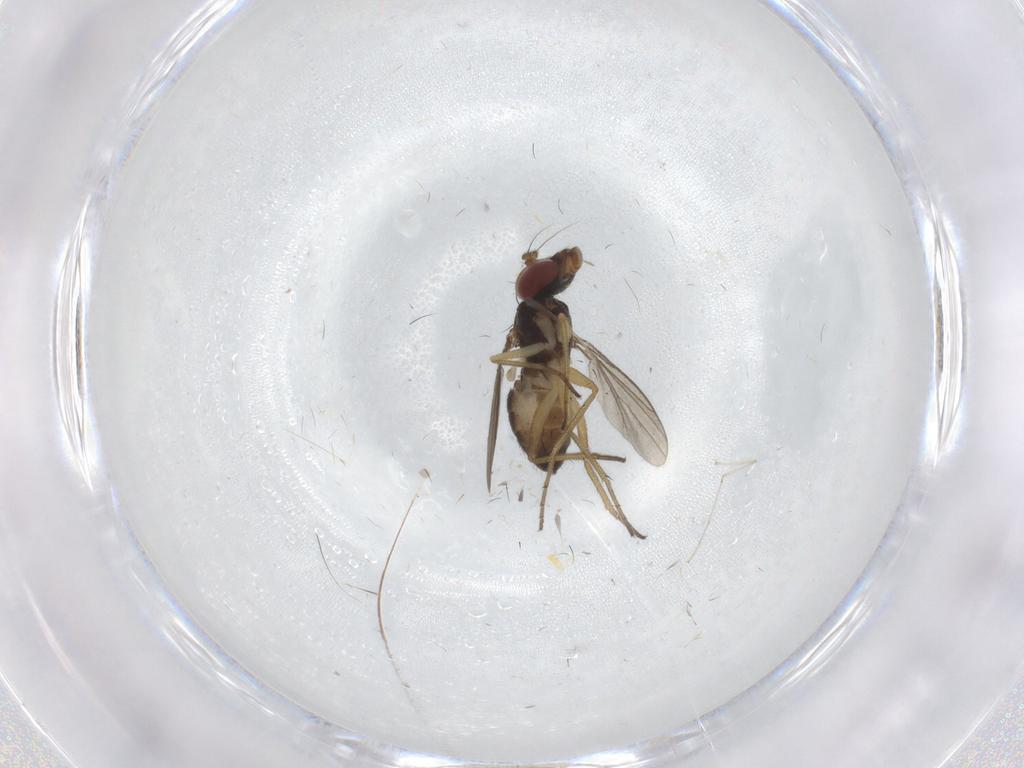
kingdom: Animalia
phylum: Arthropoda
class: Insecta
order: Diptera
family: Dolichopodidae
